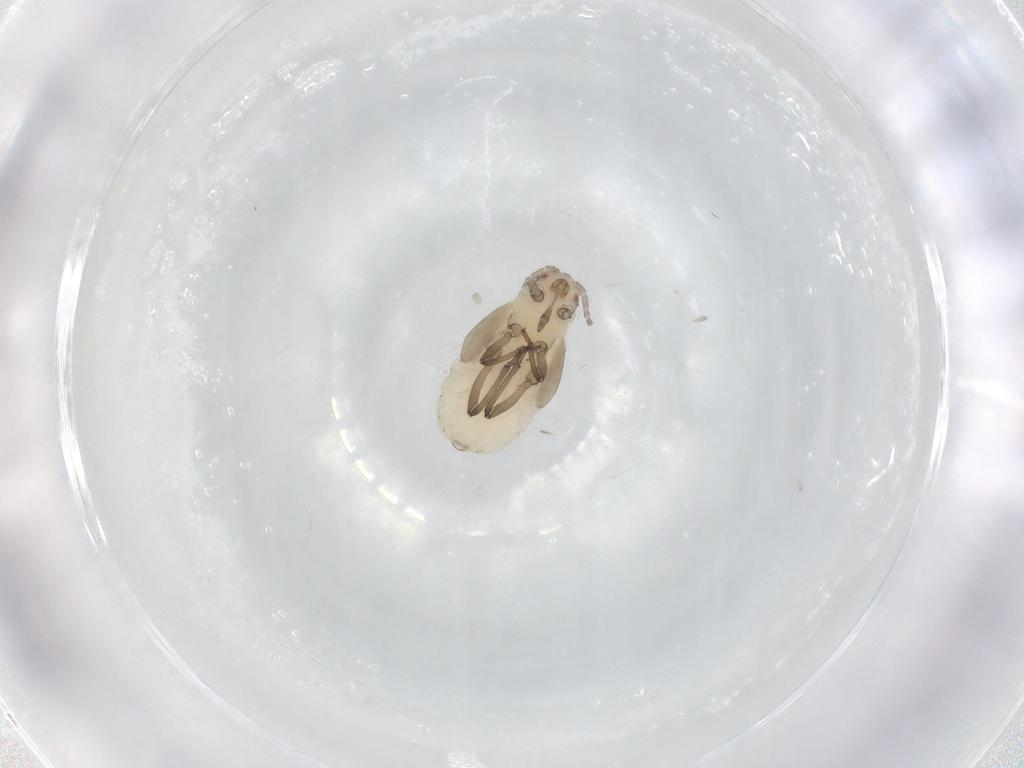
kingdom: Animalia
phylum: Arthropoda
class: Insecta
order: Hemiptera
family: Aphididae
